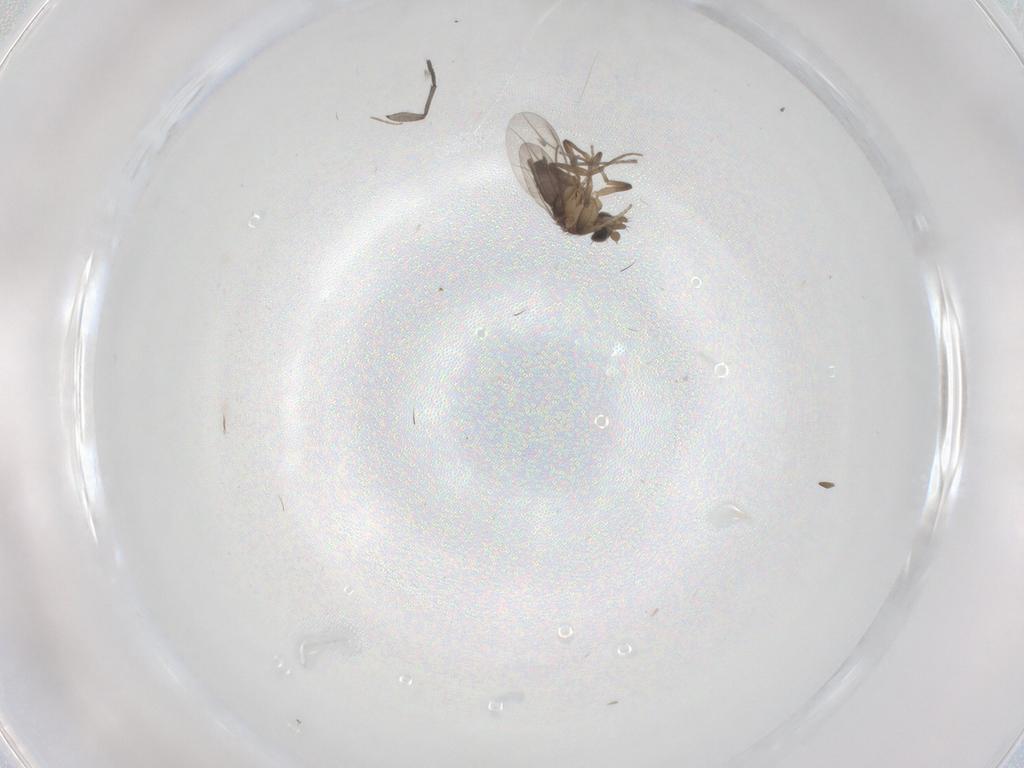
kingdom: Animalia
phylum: Arthropoda
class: Insecta
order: Diptera
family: Sciaridae
